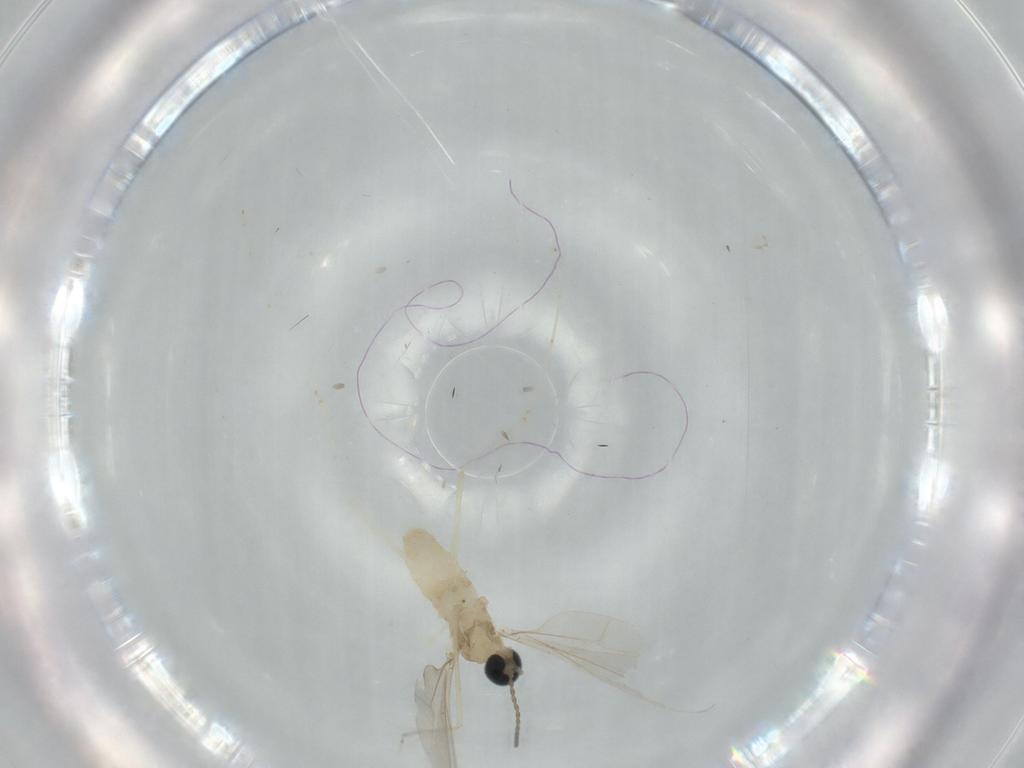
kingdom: Animalia
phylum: Arthropoda
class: Insecta
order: Diptera
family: Cecidomyiidae
